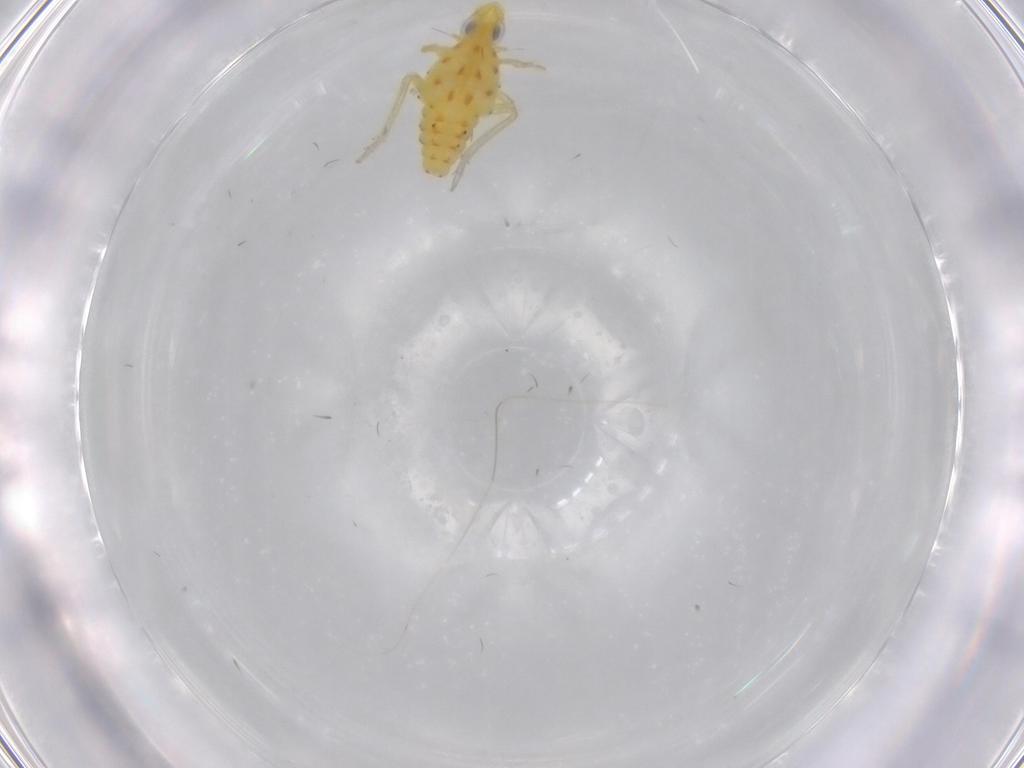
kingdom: Animalia
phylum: Arthropoda
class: Insecta
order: Hemiptera
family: Tropiduchidae
